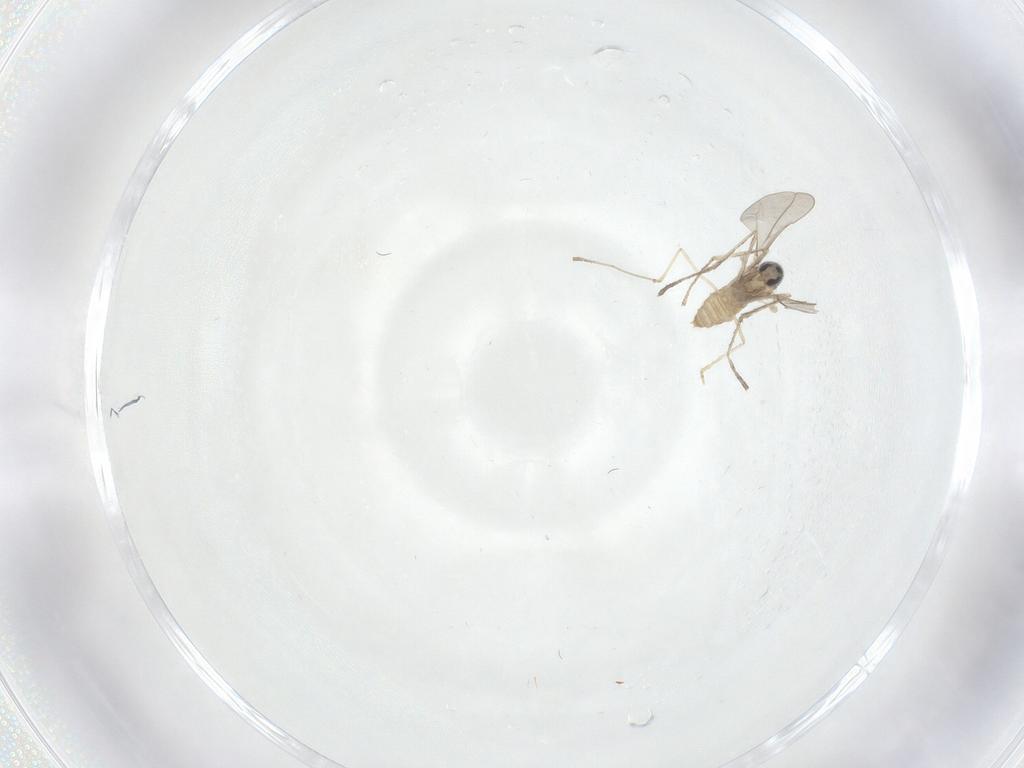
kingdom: Animalia
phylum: Arthropoda
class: Insecta
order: Diptera
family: Cecidomyiidae
